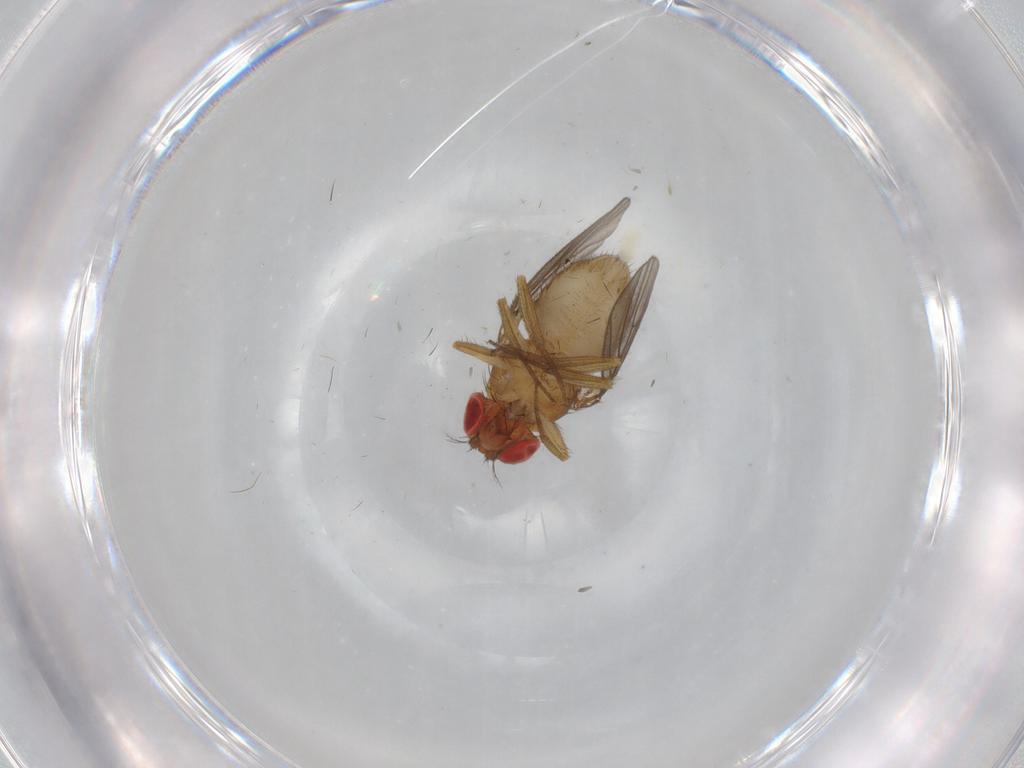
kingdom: Animalia
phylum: Arthropoda
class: Insecta
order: Diptera
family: Drosophilidae
